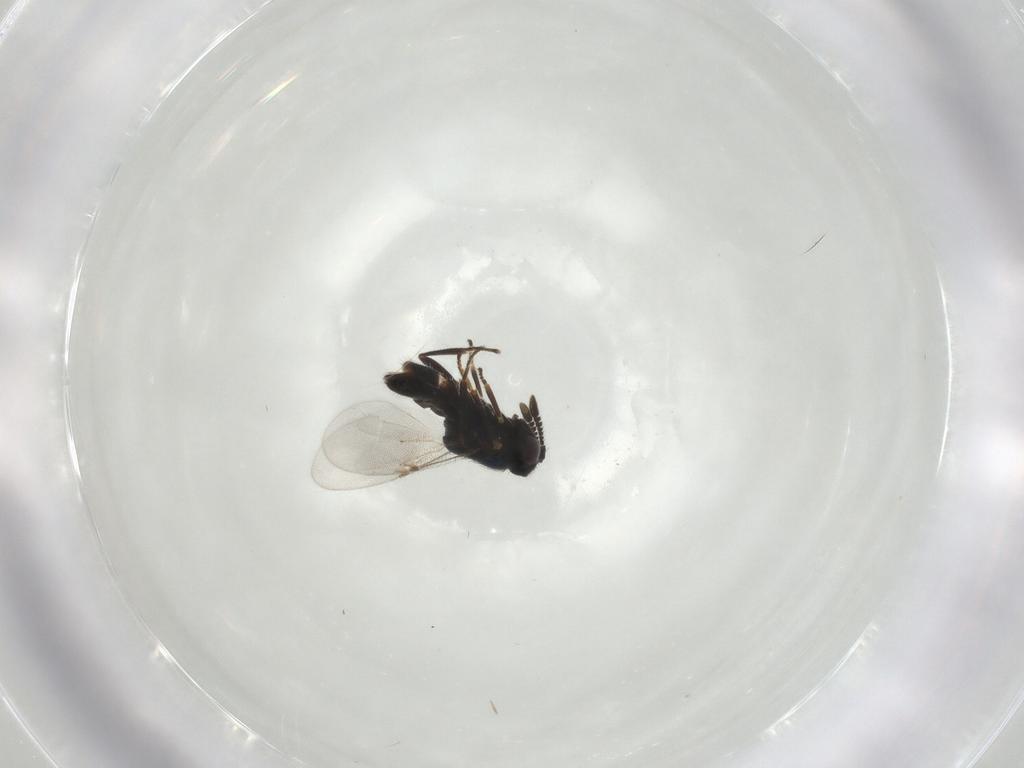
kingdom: Animalia
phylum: Arthropoda
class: Insecta
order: Hymenoptera
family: Encyrtidae
